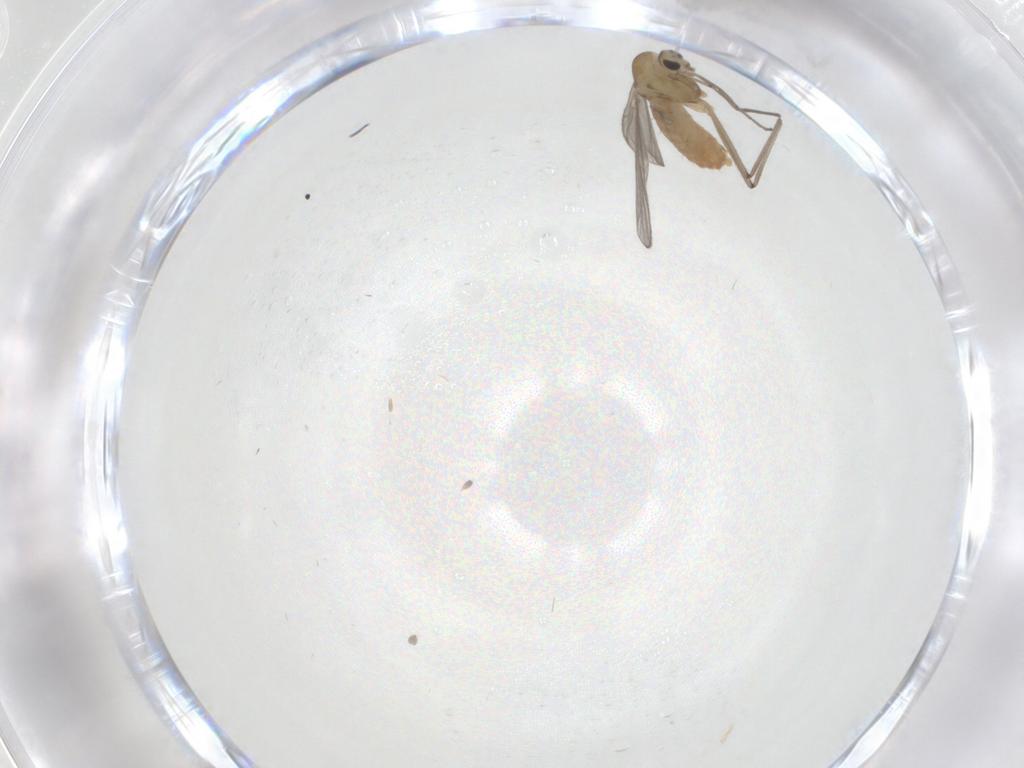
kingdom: Animalia
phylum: Arthropoda
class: Insecta
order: Diptera
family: Chironomidae
